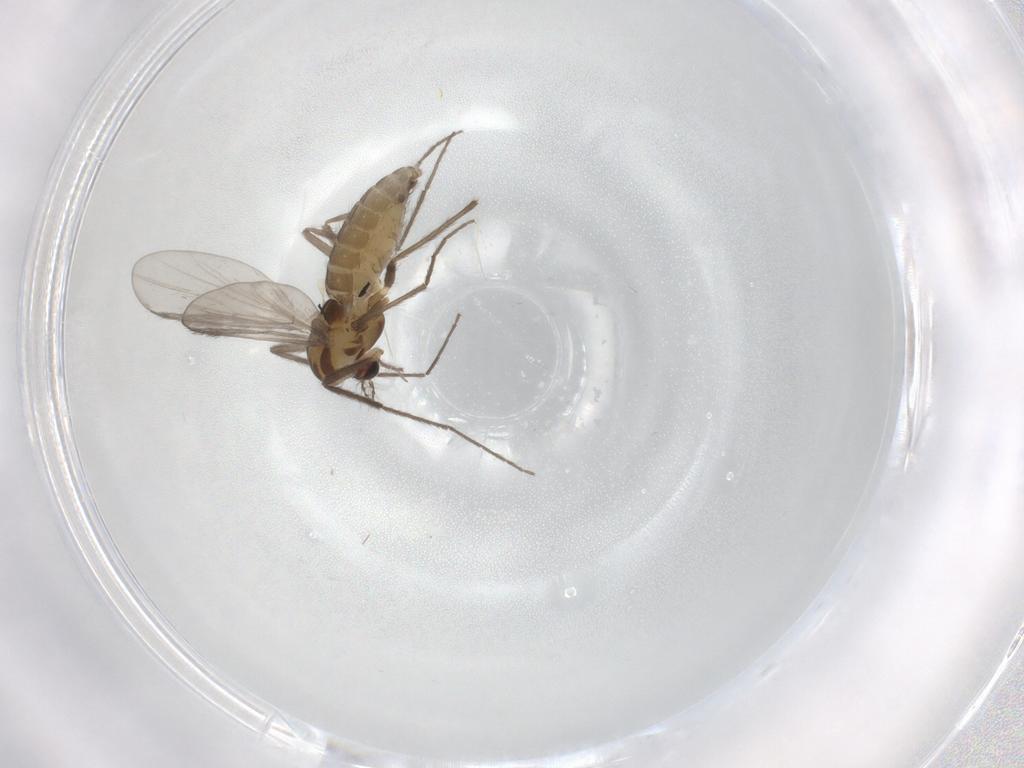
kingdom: Animalia
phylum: Arthropoda
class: Insecta
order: Diptera
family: Chironomidae
